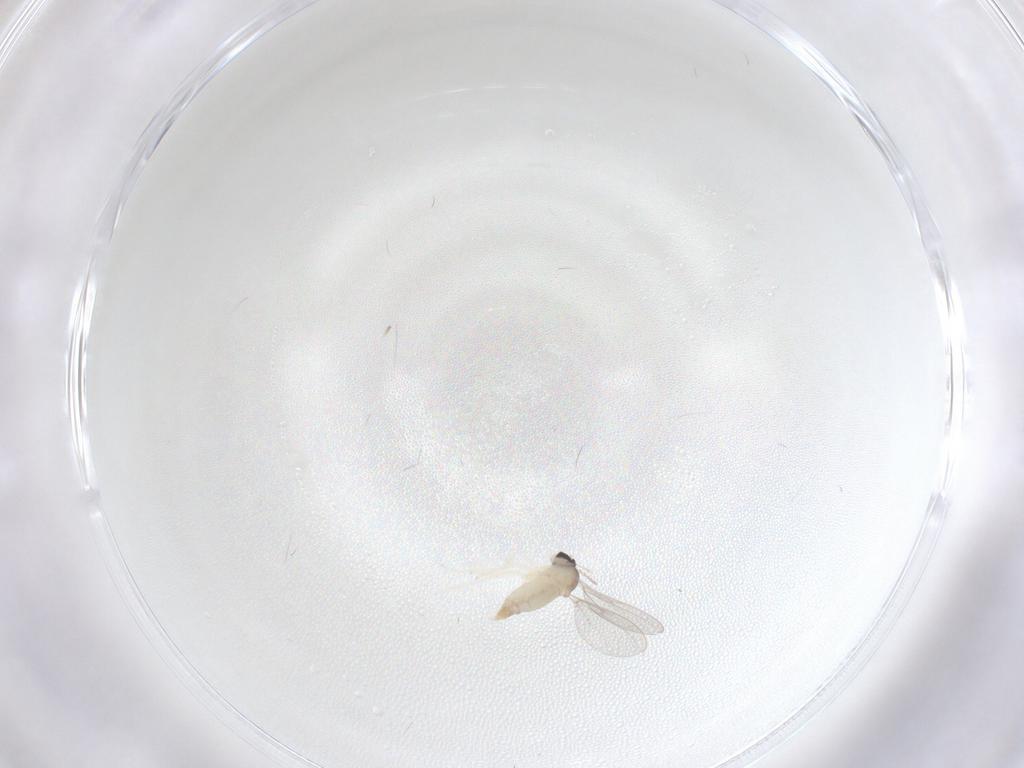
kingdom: Animalia
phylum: Arthropoda
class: Insecta
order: Diptera
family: Cecidomyiidae
